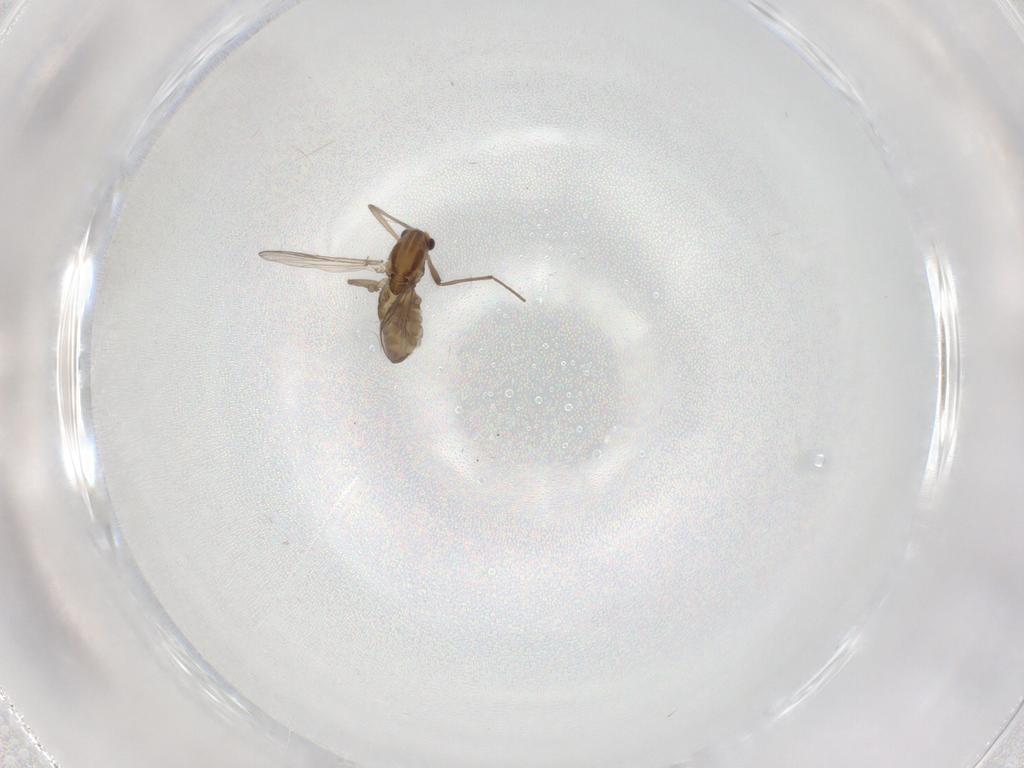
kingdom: Animalia
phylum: Arthropoda
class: Insecta
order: Diptera
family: Chironomidae
